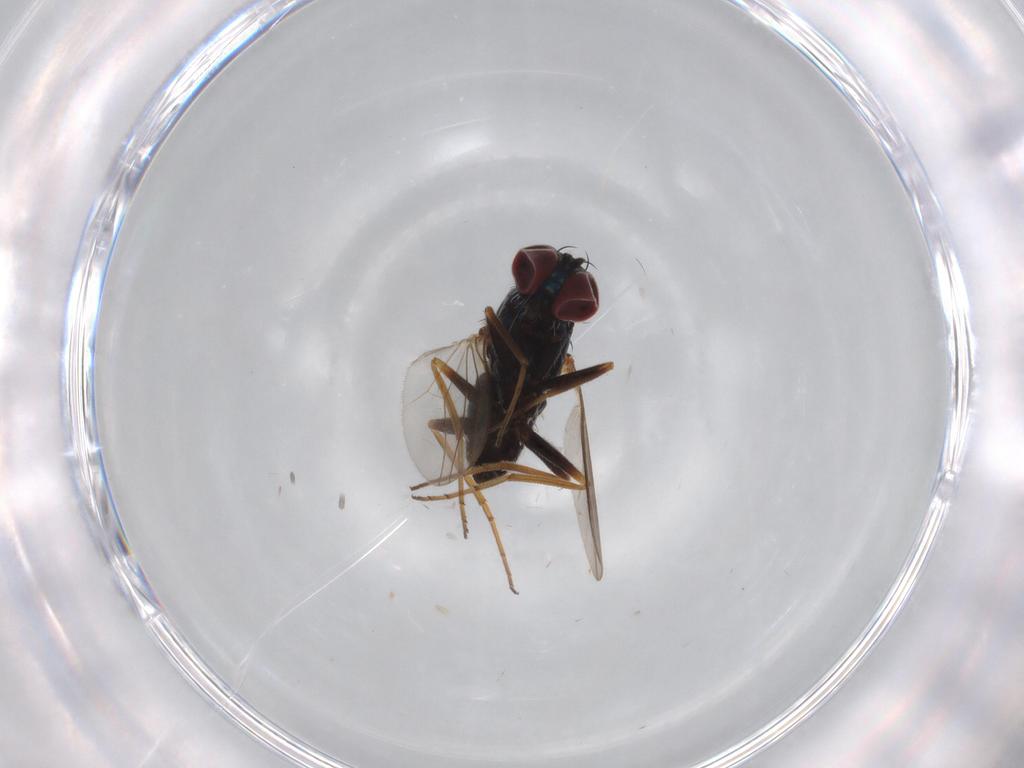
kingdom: Animalia
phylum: Arthropoda
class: Insecta
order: Diptera
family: Dolichopodidae
